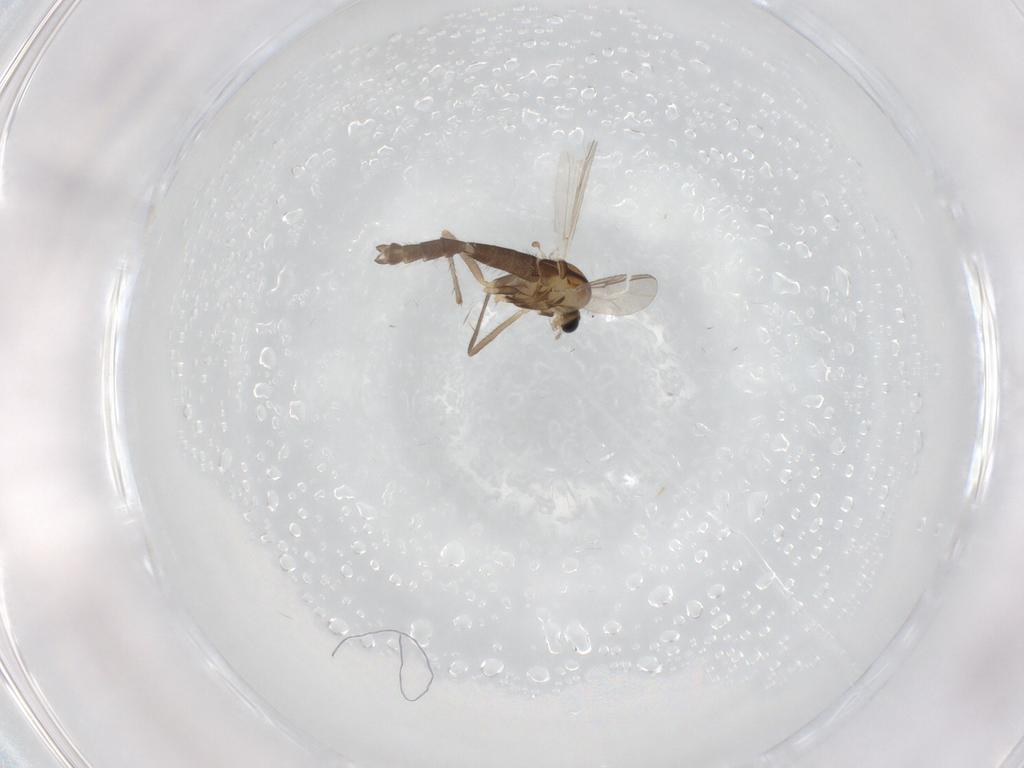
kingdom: Animalia
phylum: Arthropoda
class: Insecta
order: Diptera
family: Chironomidae
